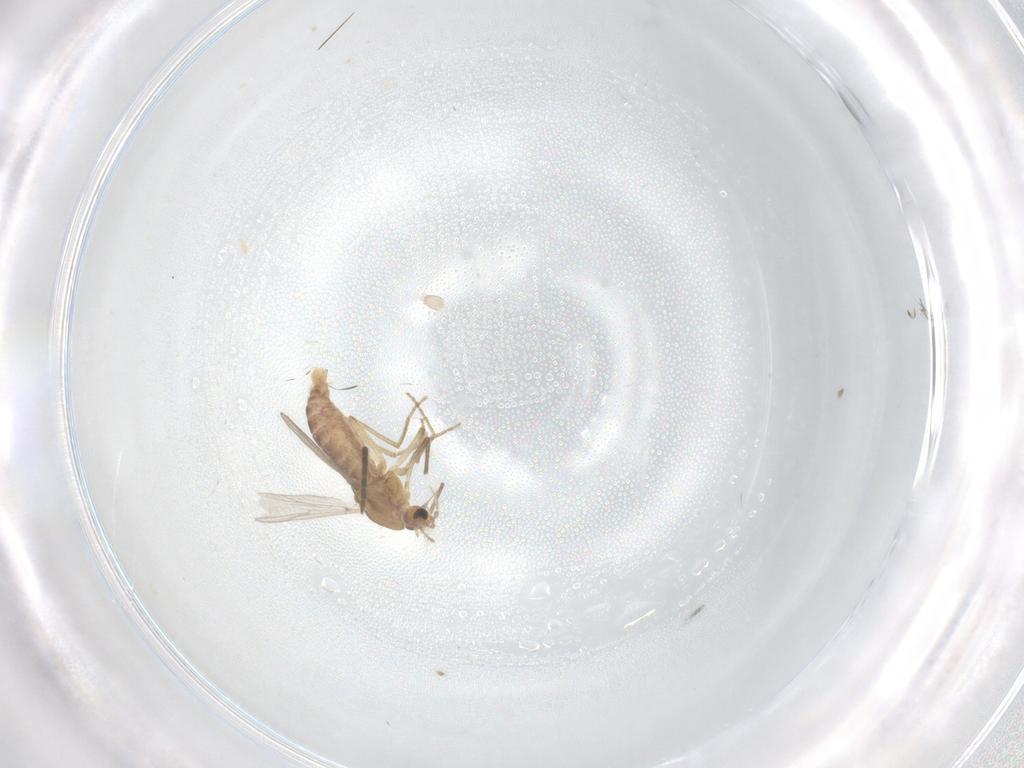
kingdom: Animalia
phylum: Arthropoda
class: Insecta
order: Diptera
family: Chironomidae
